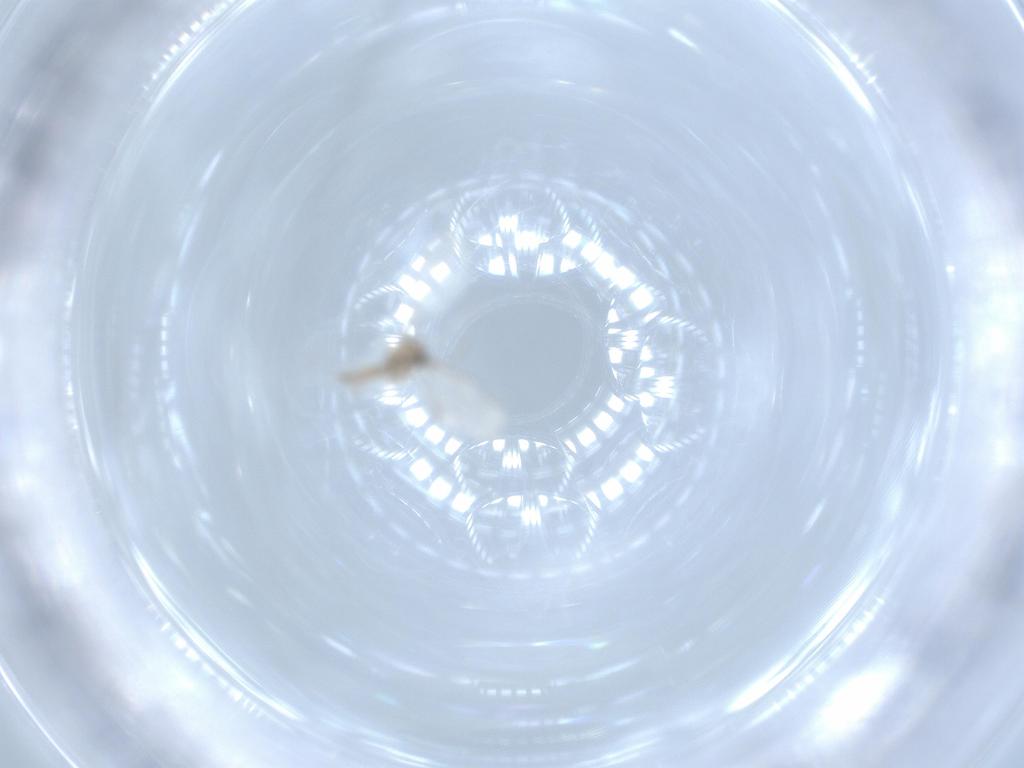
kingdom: Animalia
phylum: Arthropoda
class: Insecta
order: Diptera
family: Cecidomyiidae
